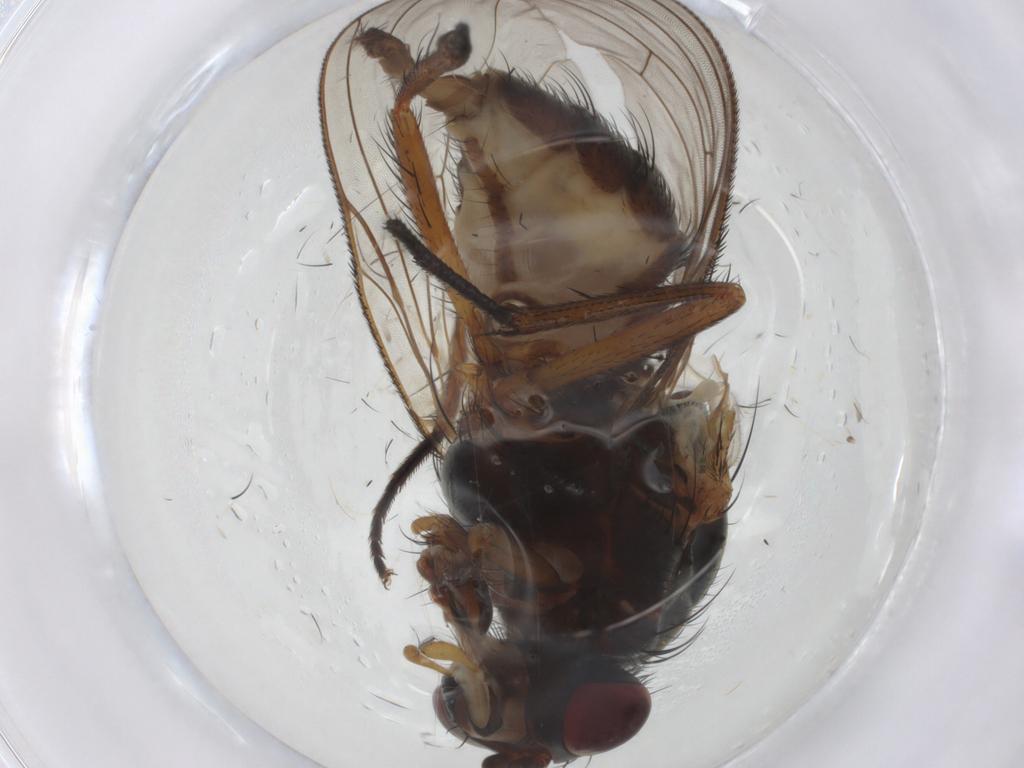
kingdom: Animalia
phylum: Arthropoda
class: Insecta
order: Diptera
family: Anthomyiidae
